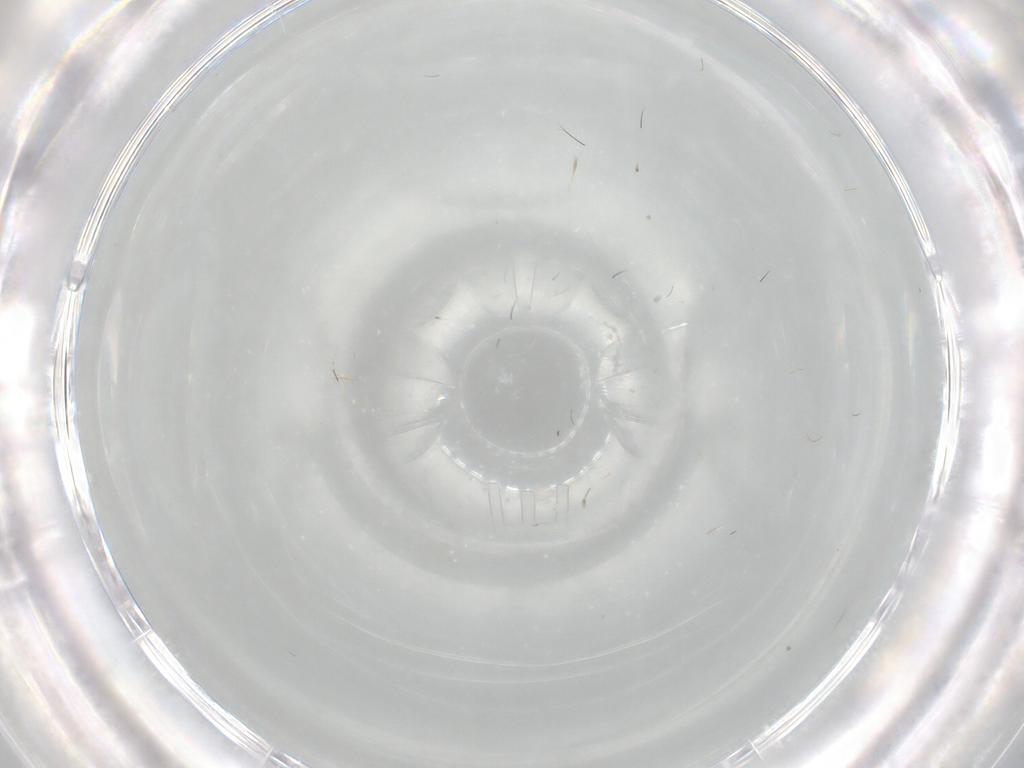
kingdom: Animalia
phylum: Arthropoda
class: Insecta
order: Diptera
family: Dolichopodidae
